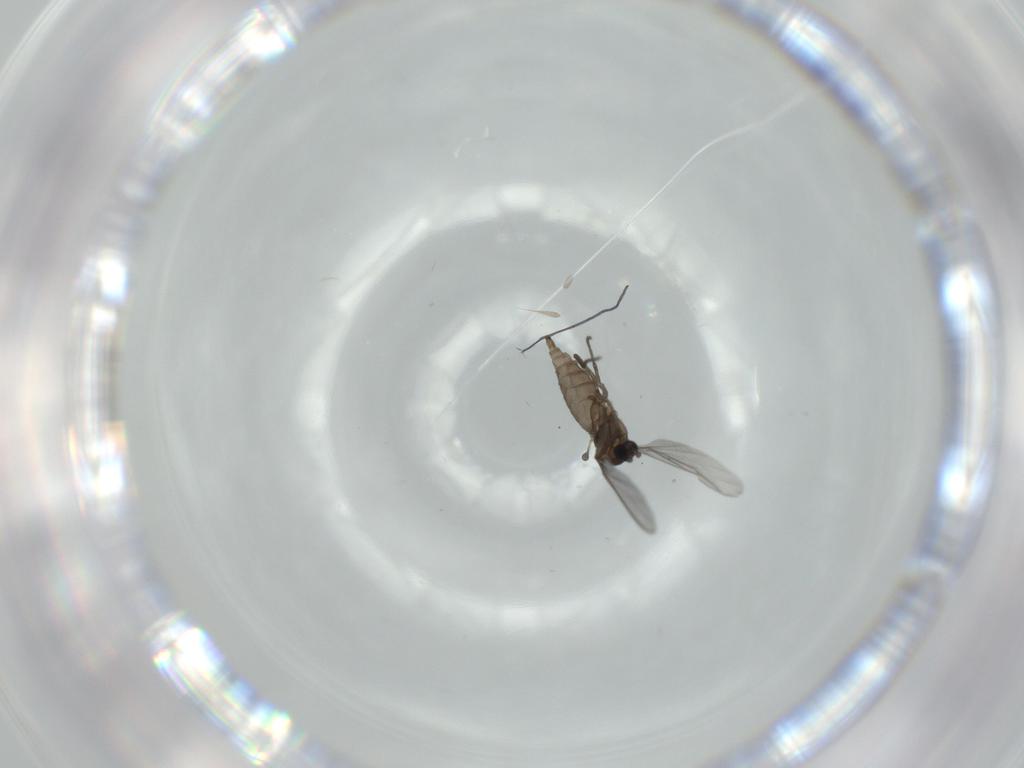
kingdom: Animalia
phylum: Arthropoda
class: Insecta
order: Diptera
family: Sciaridae
